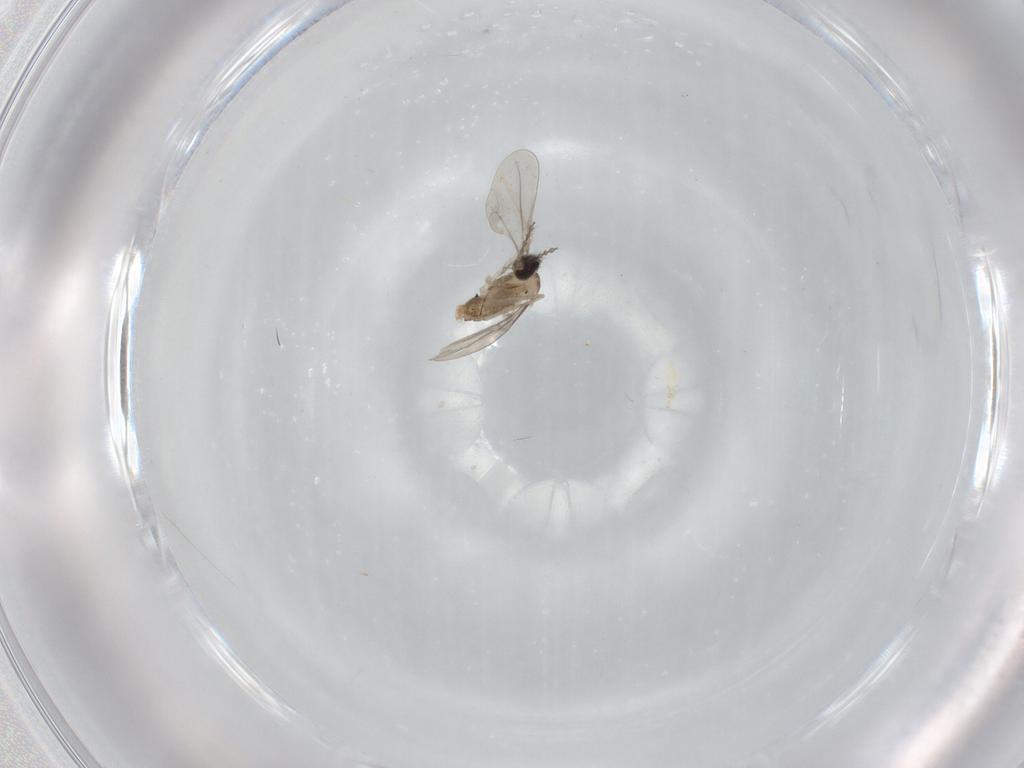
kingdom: Animalia
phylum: Arthropoda
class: Insecta
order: Diptera
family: Cecidomyiidae
